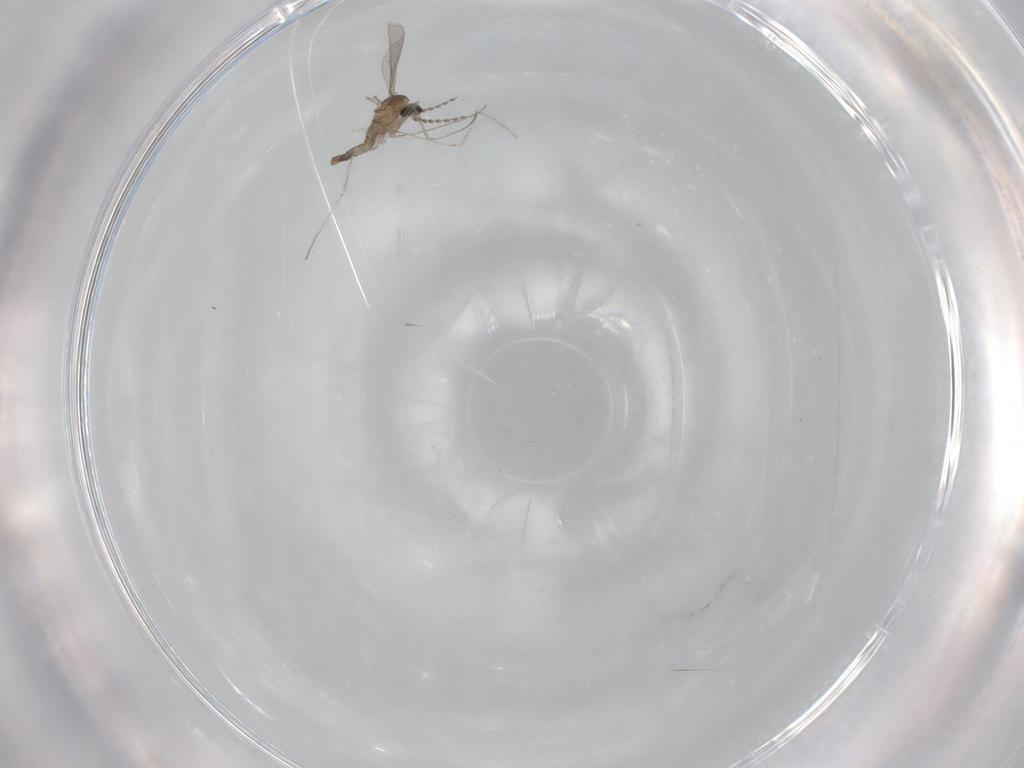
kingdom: Animalia
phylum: Arthropoda
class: Insecta
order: Diptera
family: Cecidomyiidae
